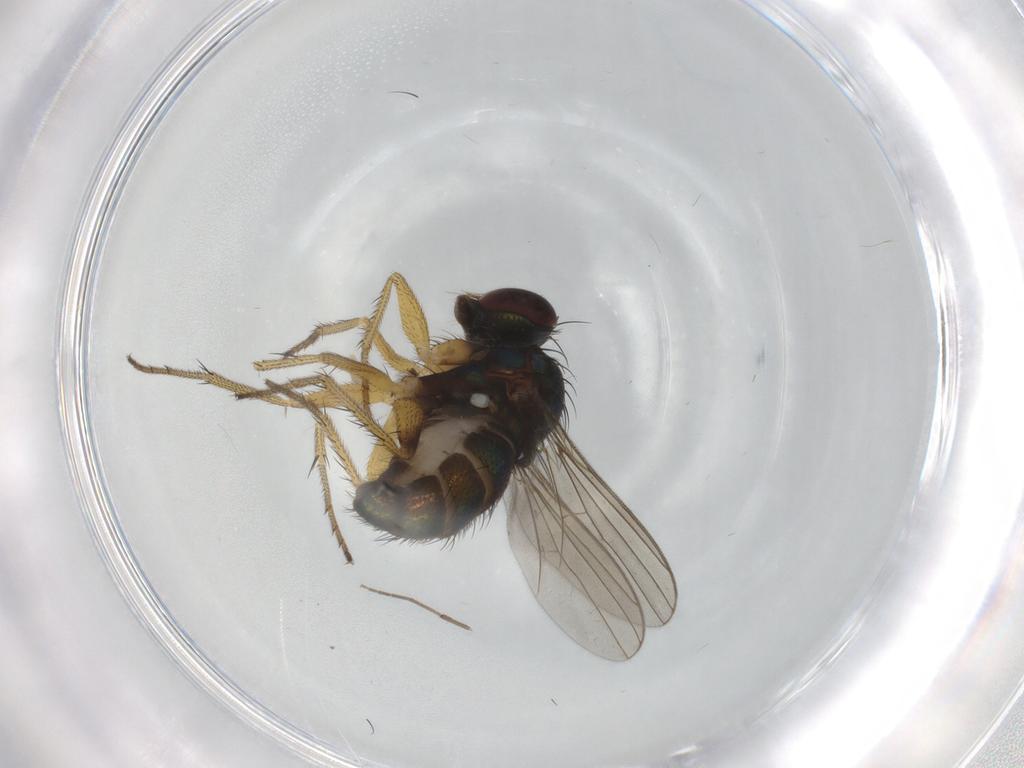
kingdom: Animalia
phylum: Arthropoda
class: Insecta
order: Diptera
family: Dolichopodidae
